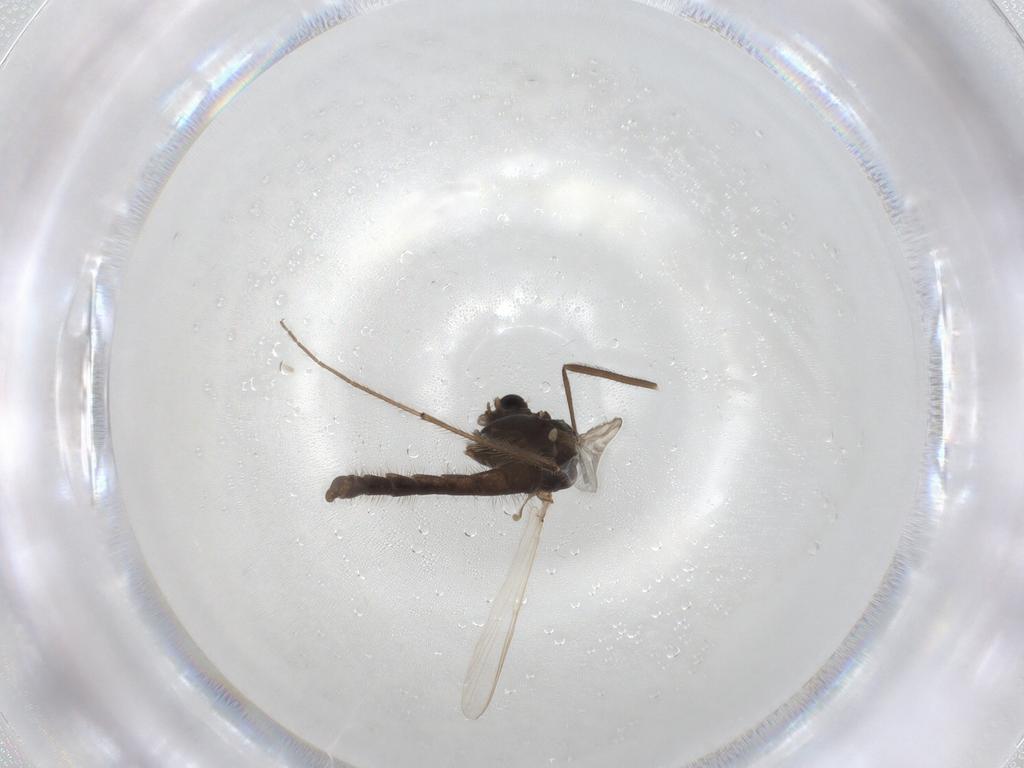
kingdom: Animalia
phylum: Arthropoda
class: Insecta
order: Diptera
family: Chironomidae
